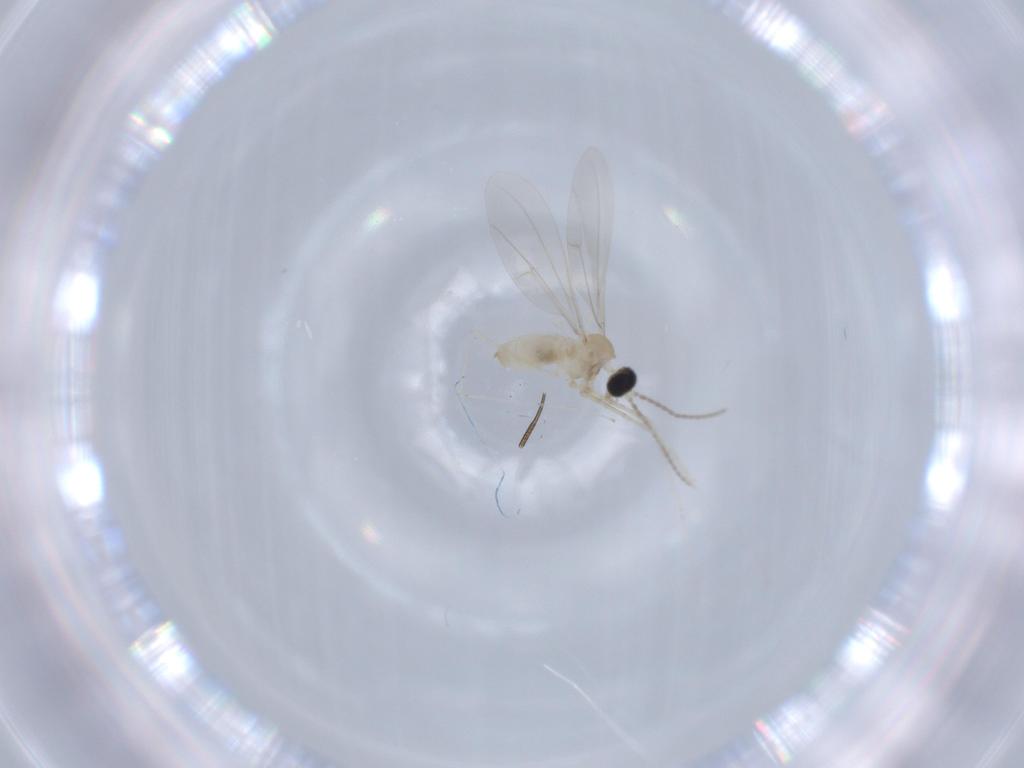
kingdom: Animalia
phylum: Arthropoda
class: Insecta
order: Diptera
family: Cecidomyiidae
